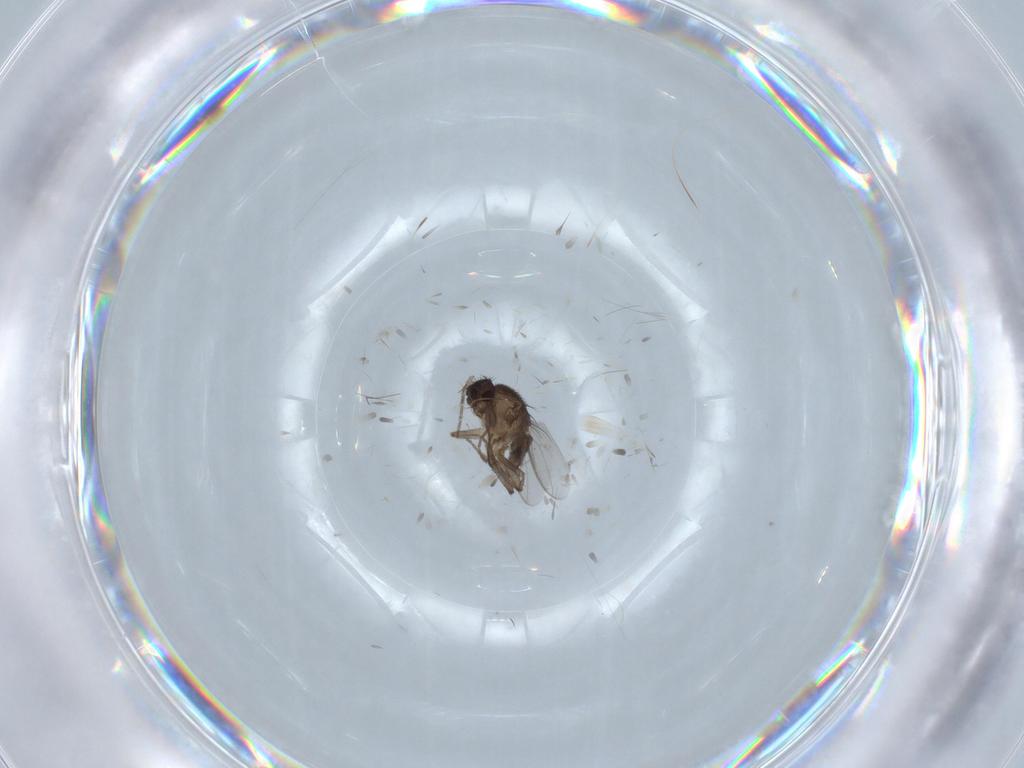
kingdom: Animalia
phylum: Arthropoda
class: Insecta
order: Diptera
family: Sphaeroceridae
